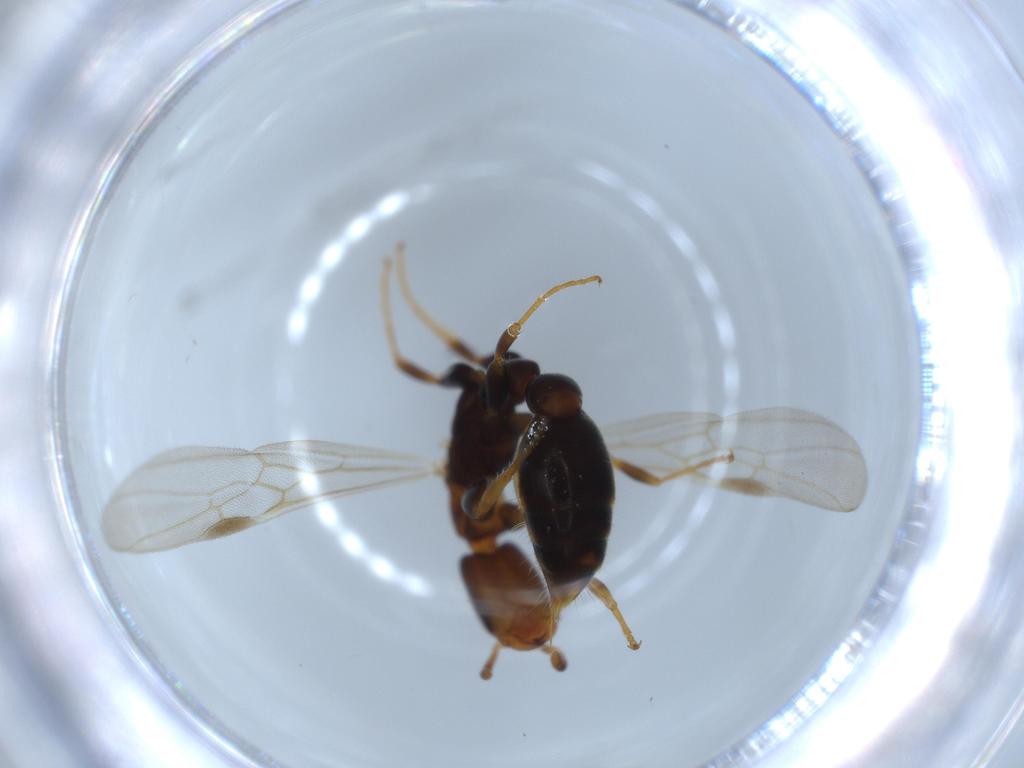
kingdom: Animalia
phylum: Arthropoda
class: Insecta
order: Hymenoptera
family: Formicidae
